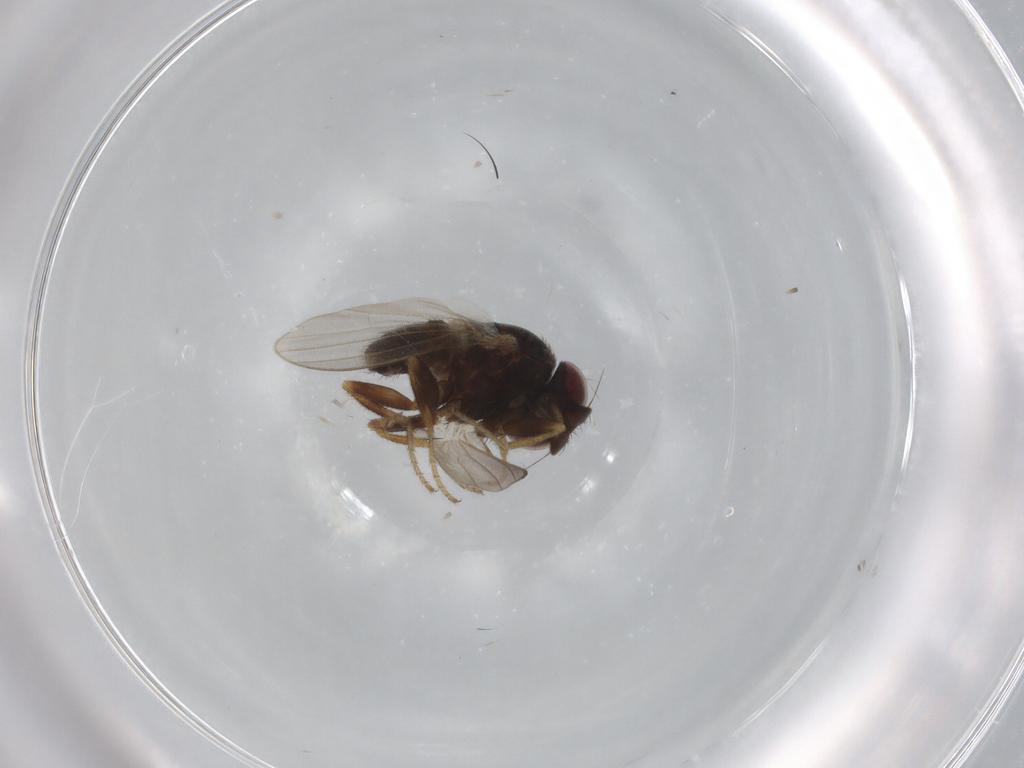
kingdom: Animalia
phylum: Arthropoda
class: Insecta
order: Diptera
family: Milichiidae
